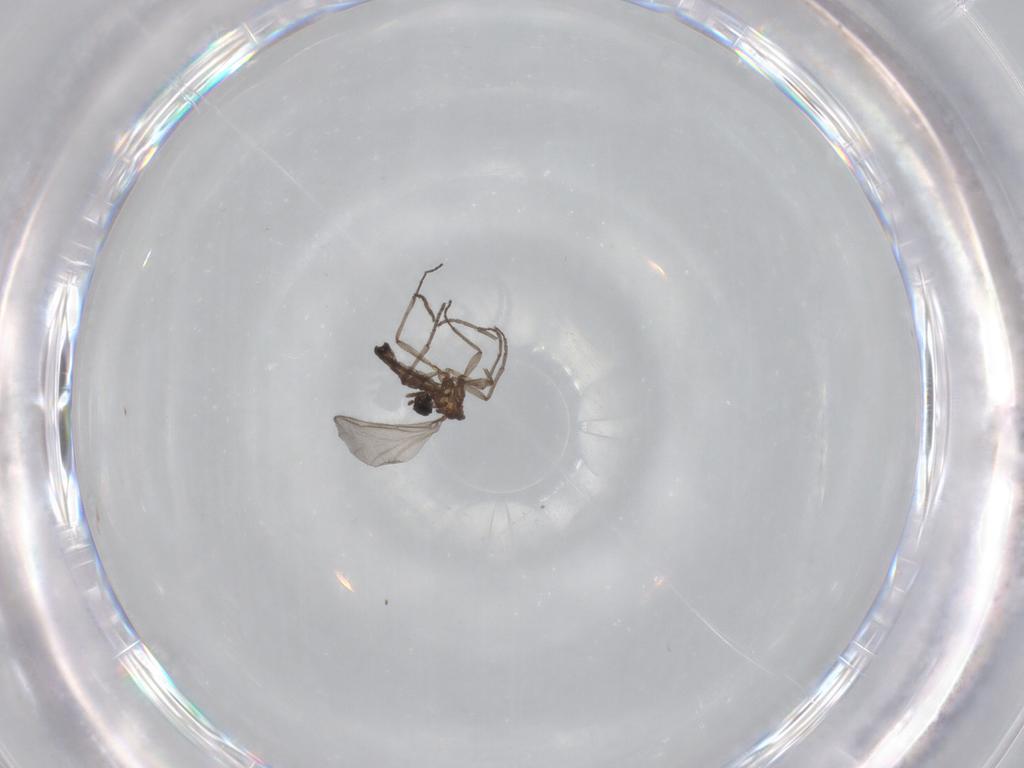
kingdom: Animalia
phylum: Arthropoda
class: Insecta
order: Diptera
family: Sciaridae
